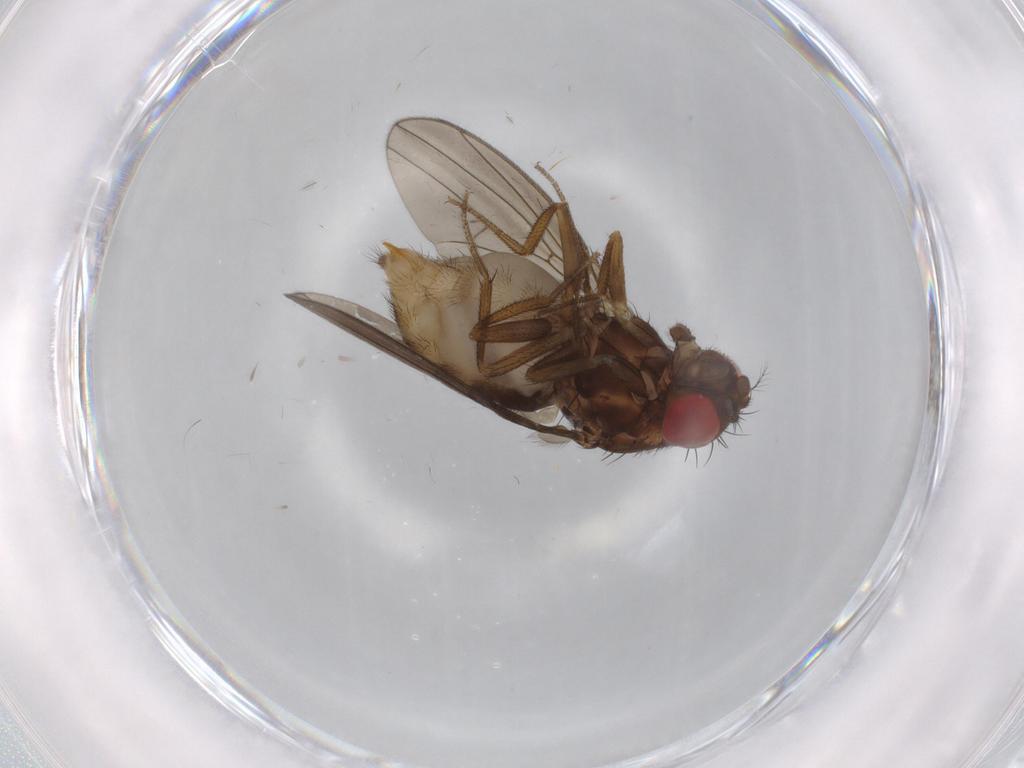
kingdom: Animalia
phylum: Arthropoda
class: Insecta
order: Diptera
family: Drosophilidae
